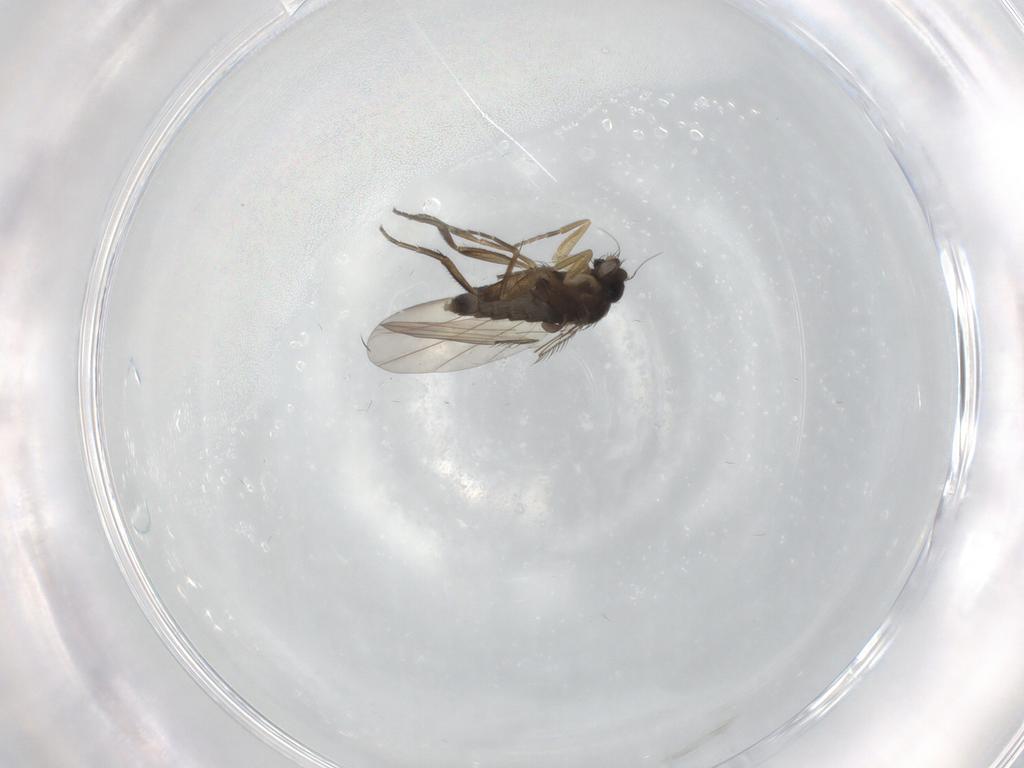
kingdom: Animalia
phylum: Arthropoda
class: Insecta
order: Diptera
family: Phoridae
